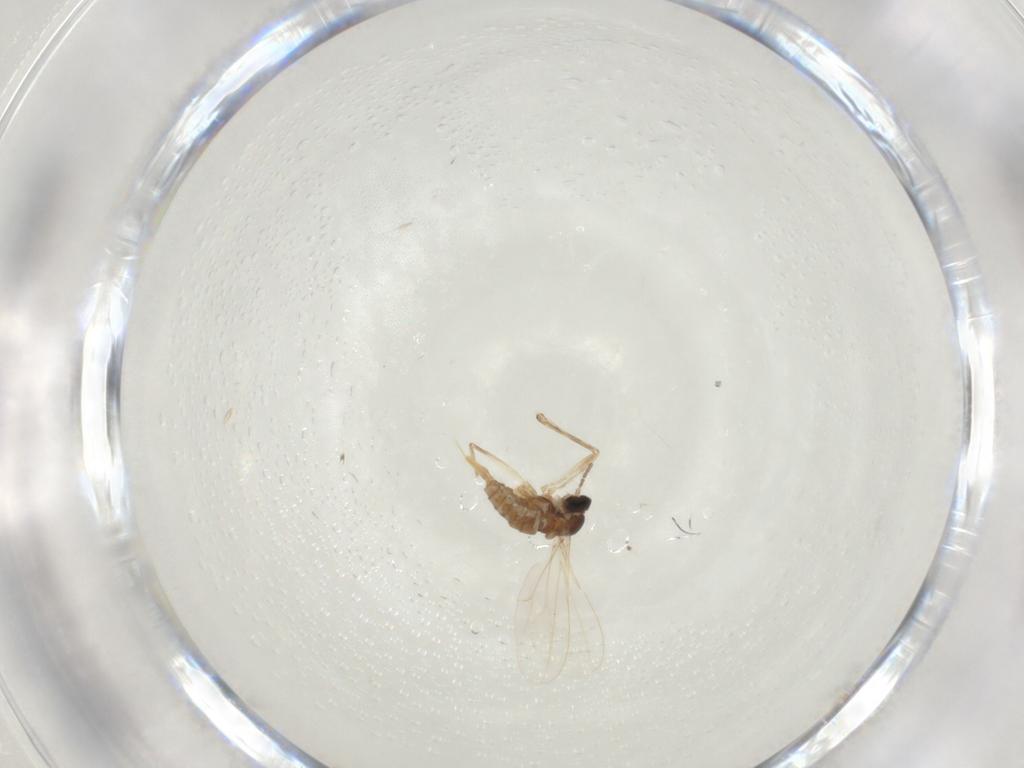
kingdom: Animalia
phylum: Arthropoda
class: Insecta
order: Diptera
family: Cecidomyiidae
